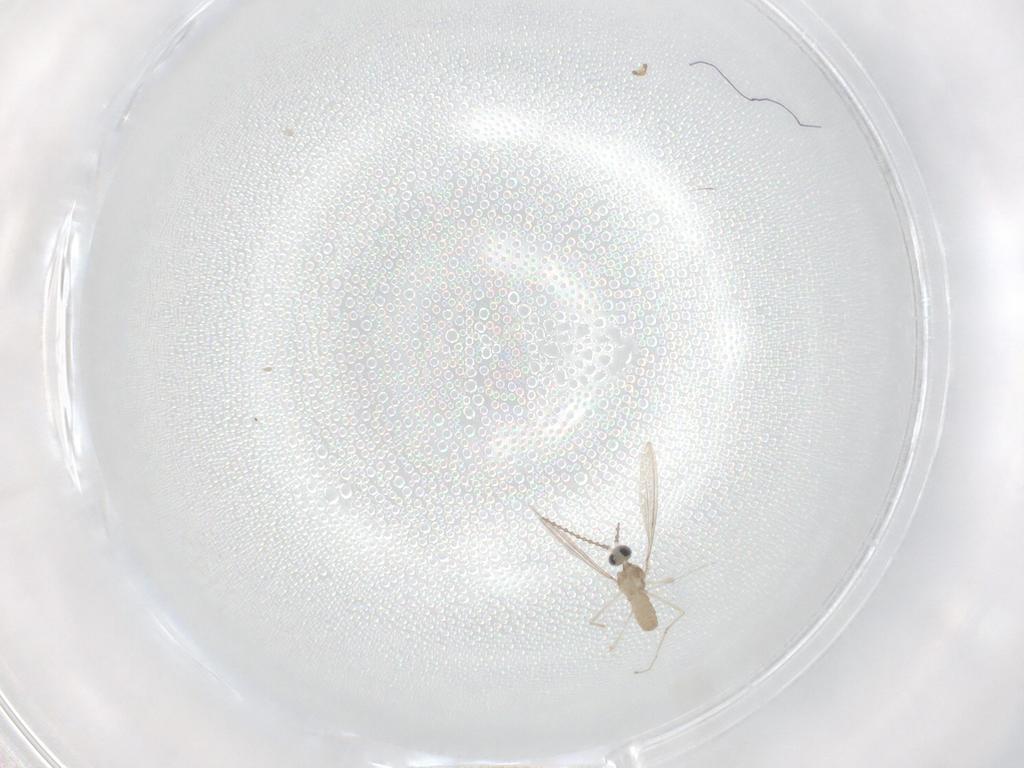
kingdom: Animalia
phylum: Arthropoda
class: Insecta
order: Diptera
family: Cecidomyiidae
